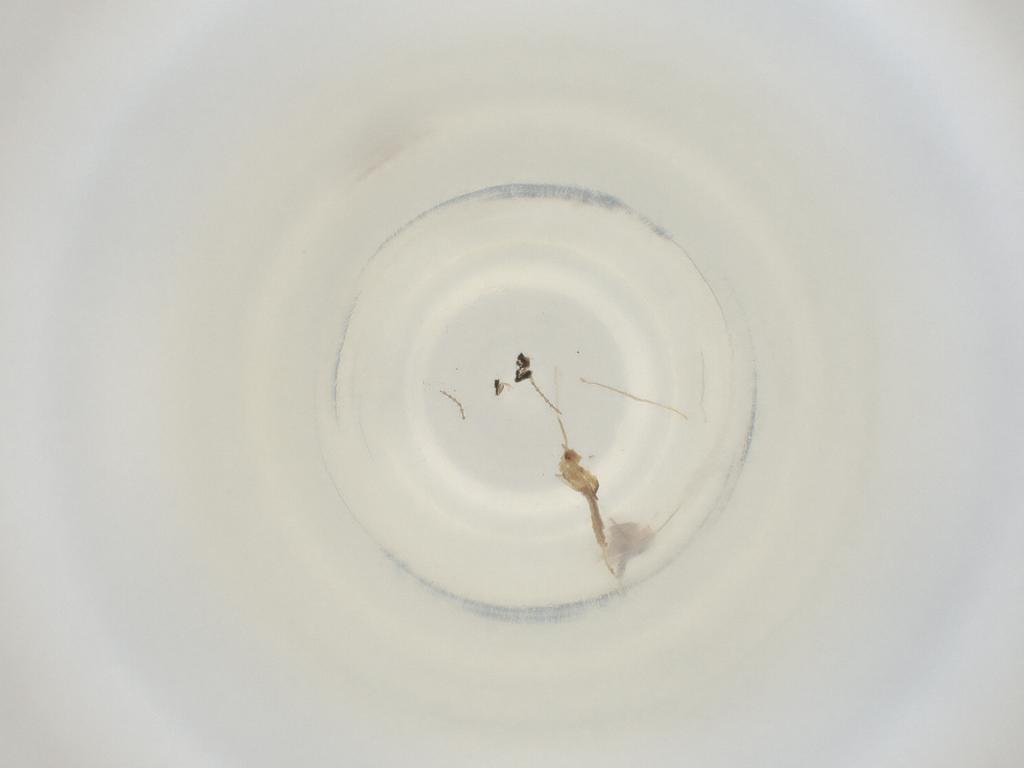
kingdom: Animalia
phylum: Arthropoda
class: Insecta
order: Diptera
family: Cecidomyiidae
